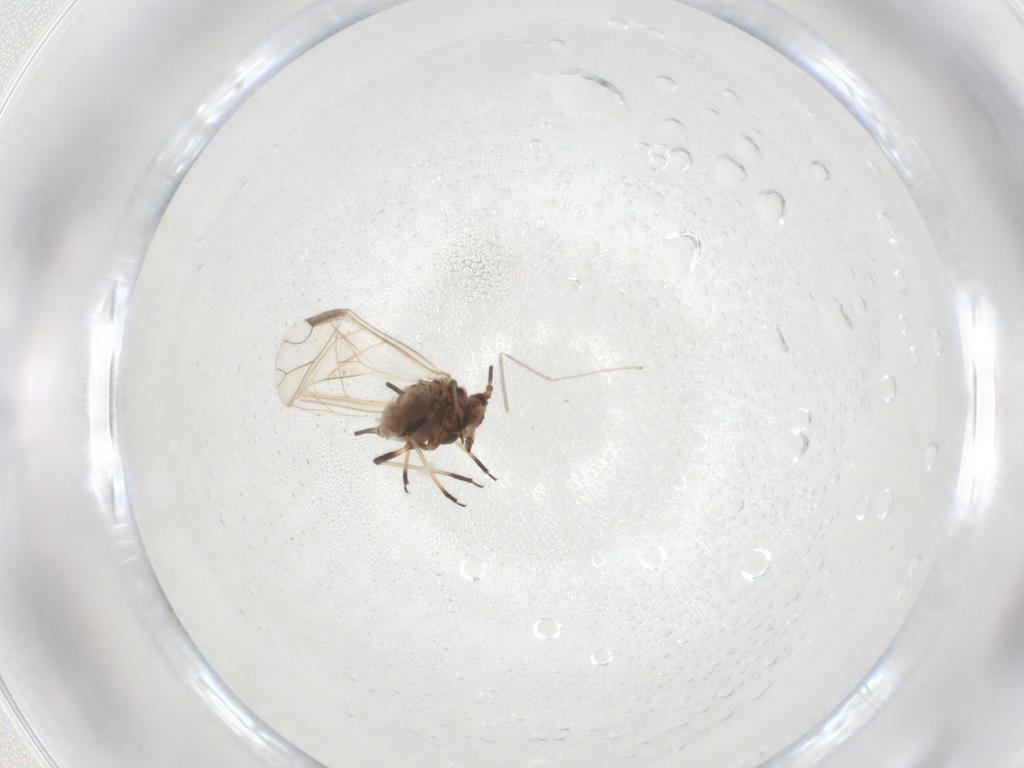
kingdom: Animalia
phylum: Arthropoda
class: Insecta
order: Hemiptera
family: Aphididae
